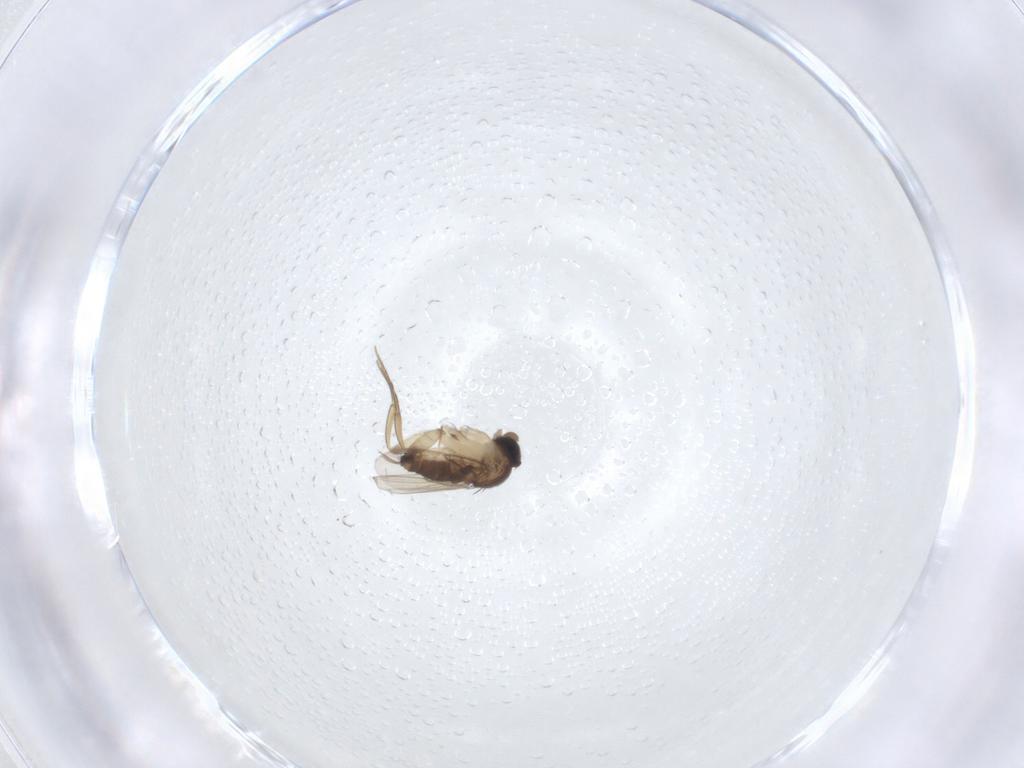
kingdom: Animalia
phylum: Arthropoda
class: Insecta
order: Diptera
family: Phoridae
